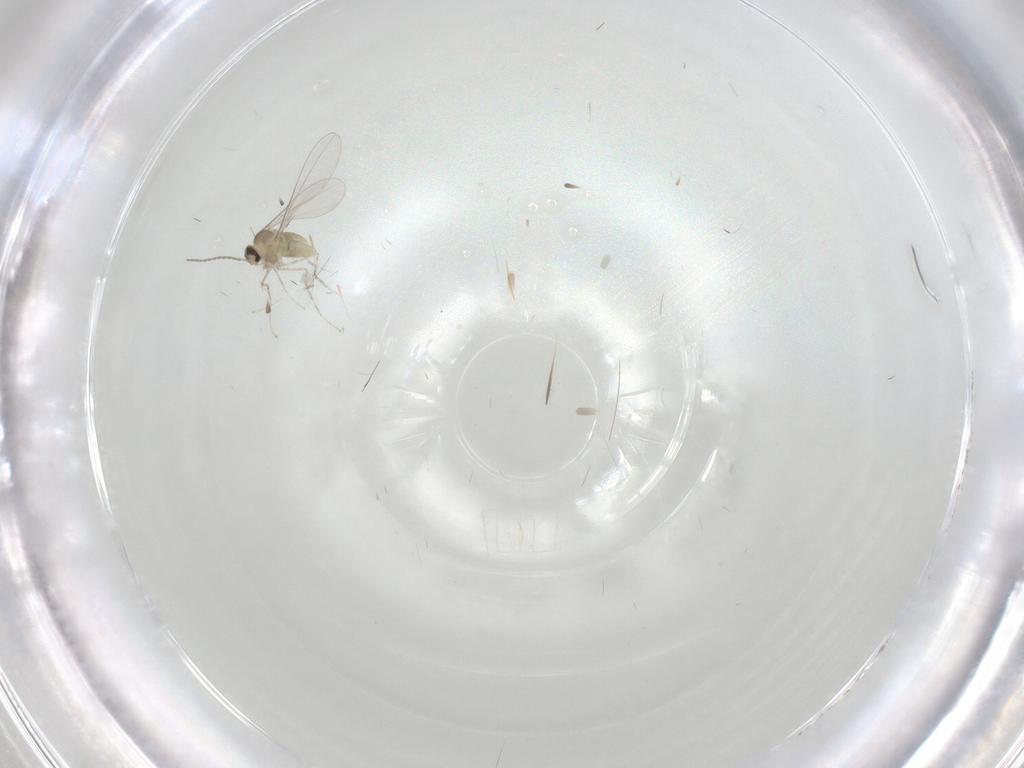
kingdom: Animalia
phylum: Arthropoda
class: Insecta
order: Diptera
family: Cecidomyiidae
